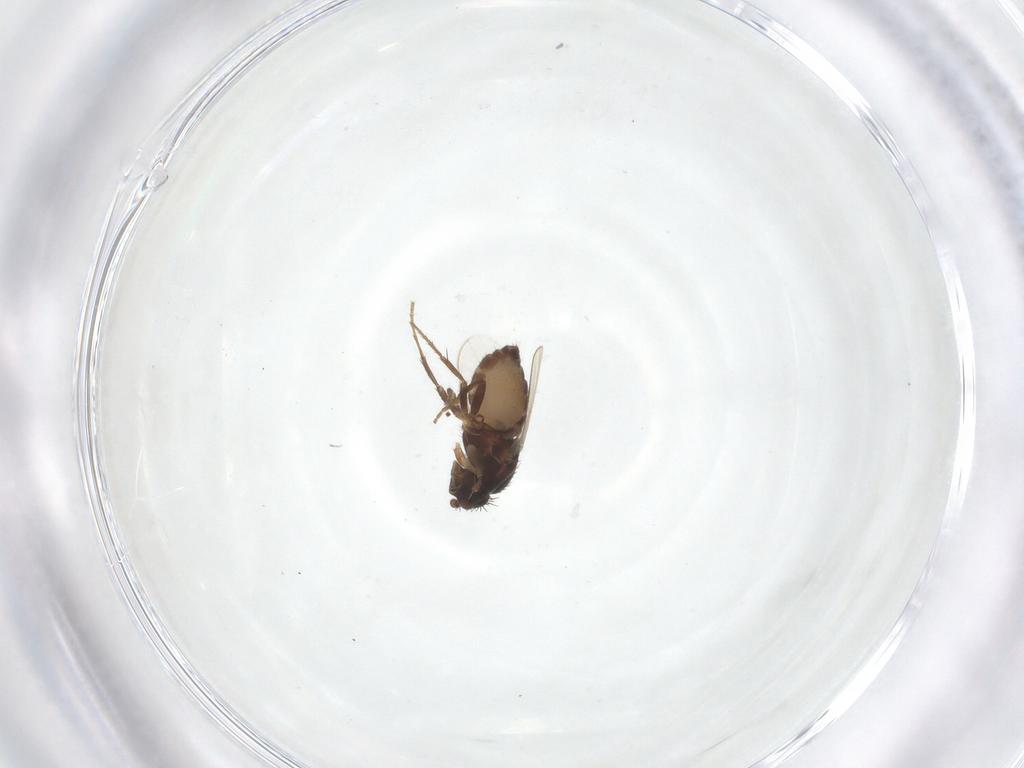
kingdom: Animalia
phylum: Arthropoda
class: Insecta
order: Diptera
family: Sphaeroceridae
